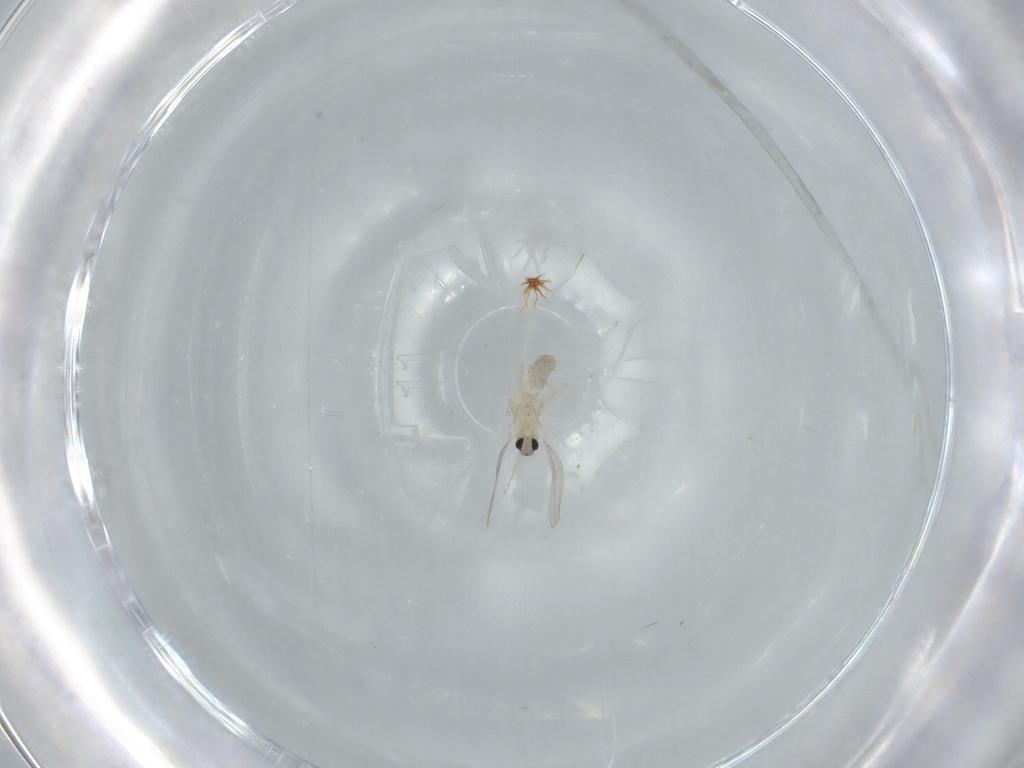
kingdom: Animalia
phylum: Arthropoda
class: Insecta
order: Diptera
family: Cecidomyiidae
